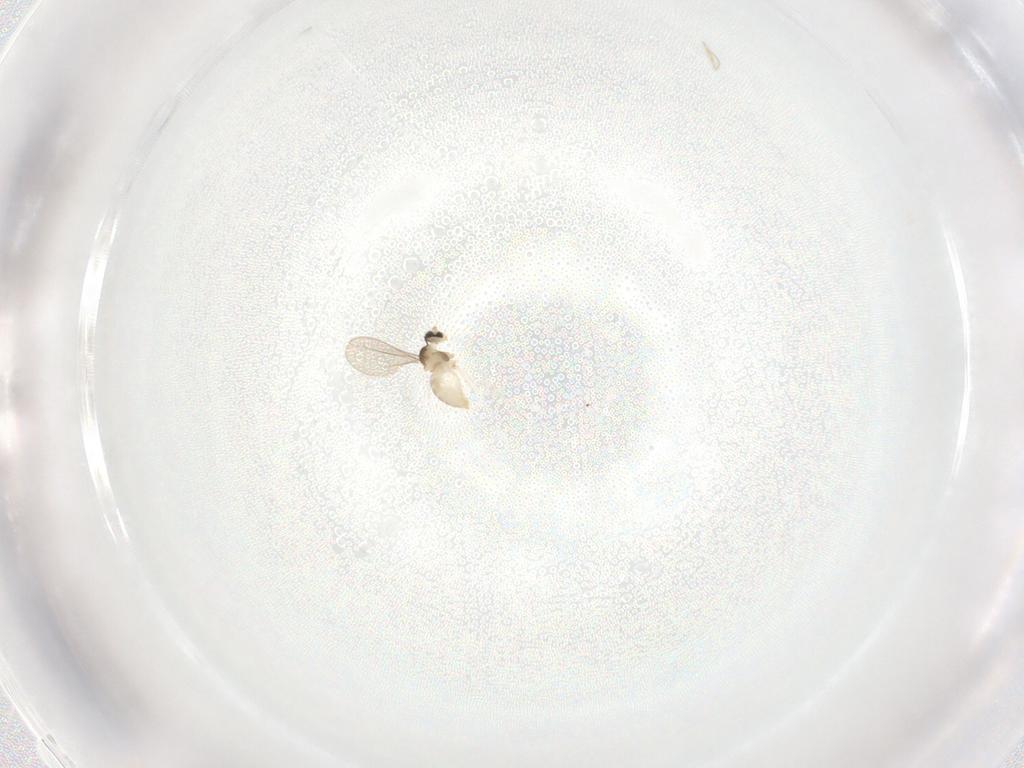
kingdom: Animalia
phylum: Arthropoda
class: Insecta
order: Diptera
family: Cecidomyiidae
